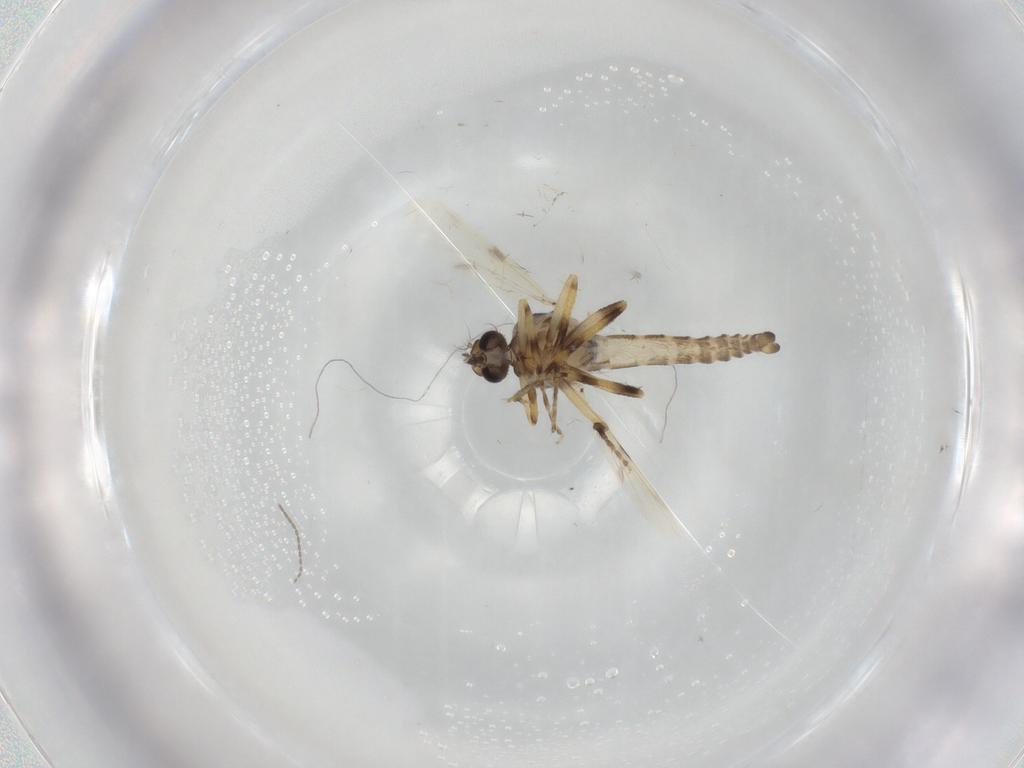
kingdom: Animalia
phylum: Arthropoda
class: Insecta
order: Diptera
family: Ceratopogonidae
